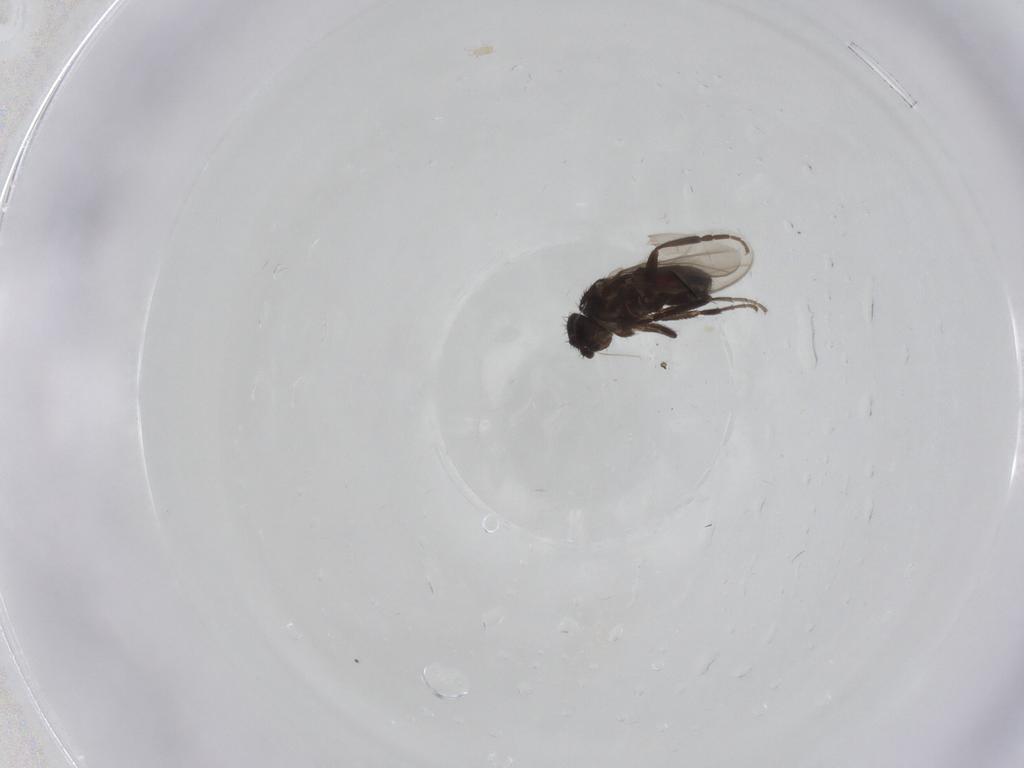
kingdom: Animalia
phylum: Arthropoda
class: Insecta
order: Diptera
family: Sphaeroceridae
